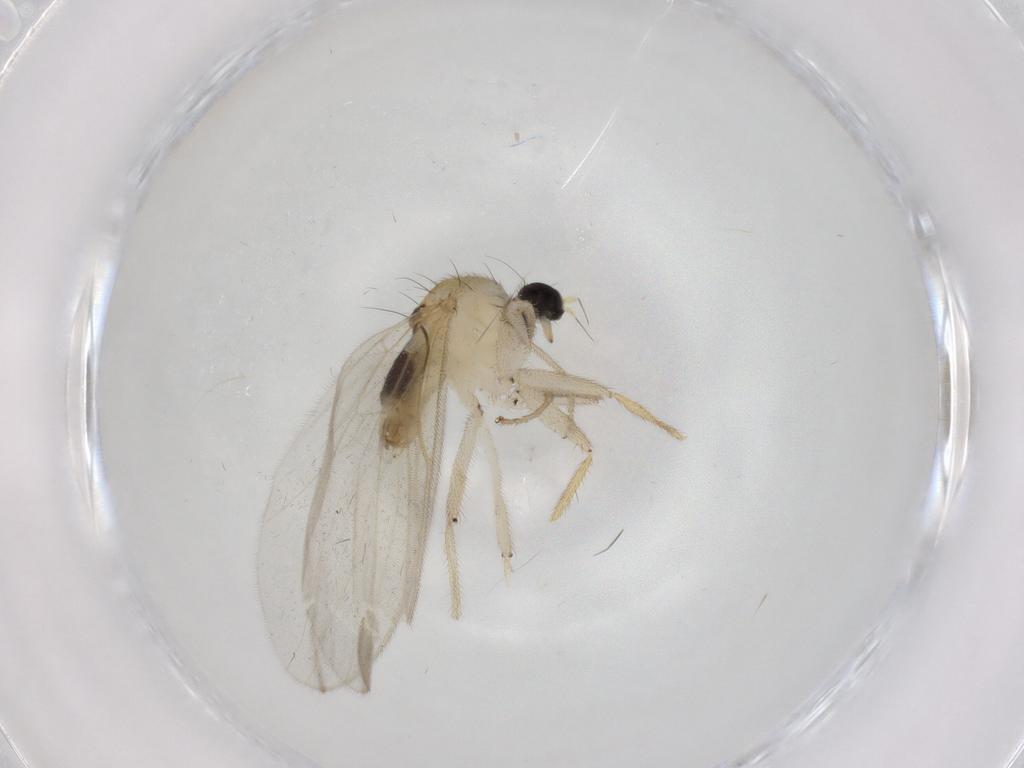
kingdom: Animalia
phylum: Arthropoda
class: Insecta
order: Diptera
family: Hybotidae
